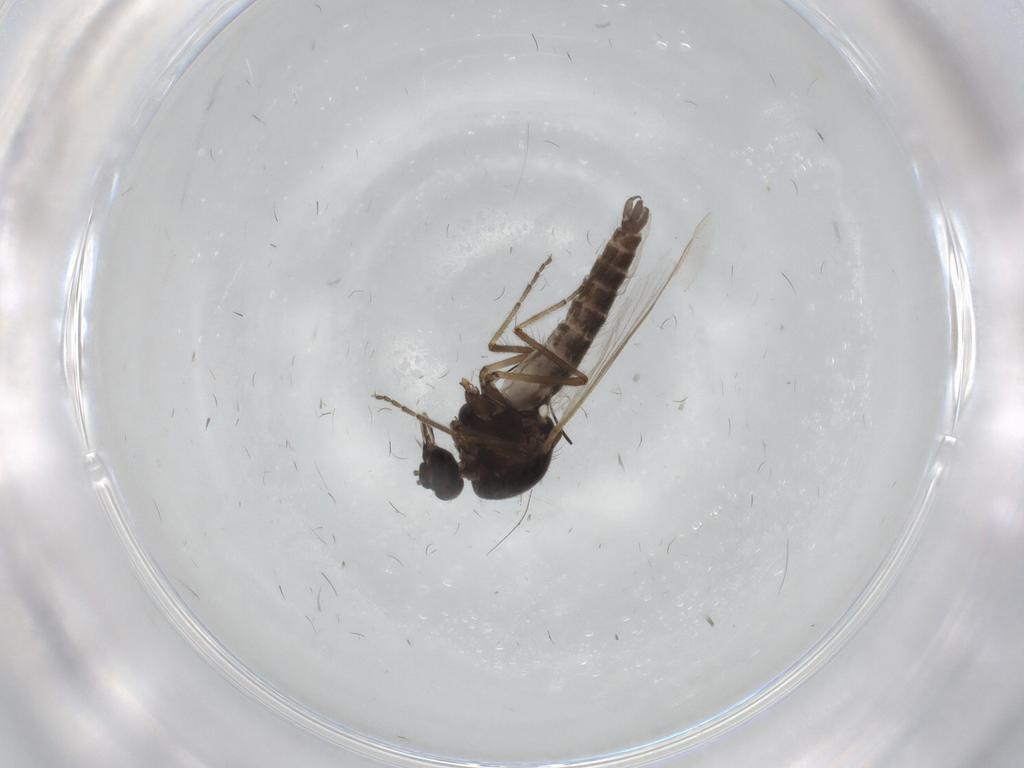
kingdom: Animalia
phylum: Arthropoda
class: Insecta
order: Diptera
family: Ceratopogonidae
